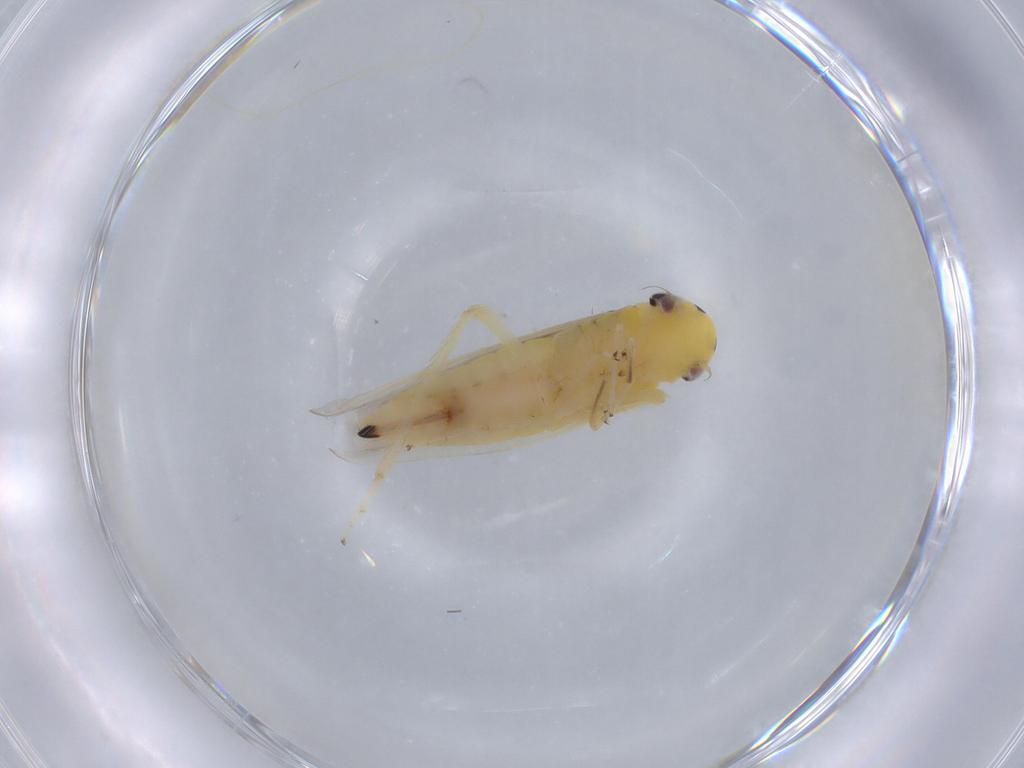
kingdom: Animalia
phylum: Arthropoda
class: Insecta
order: Hemiptera
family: Cicadellidae
